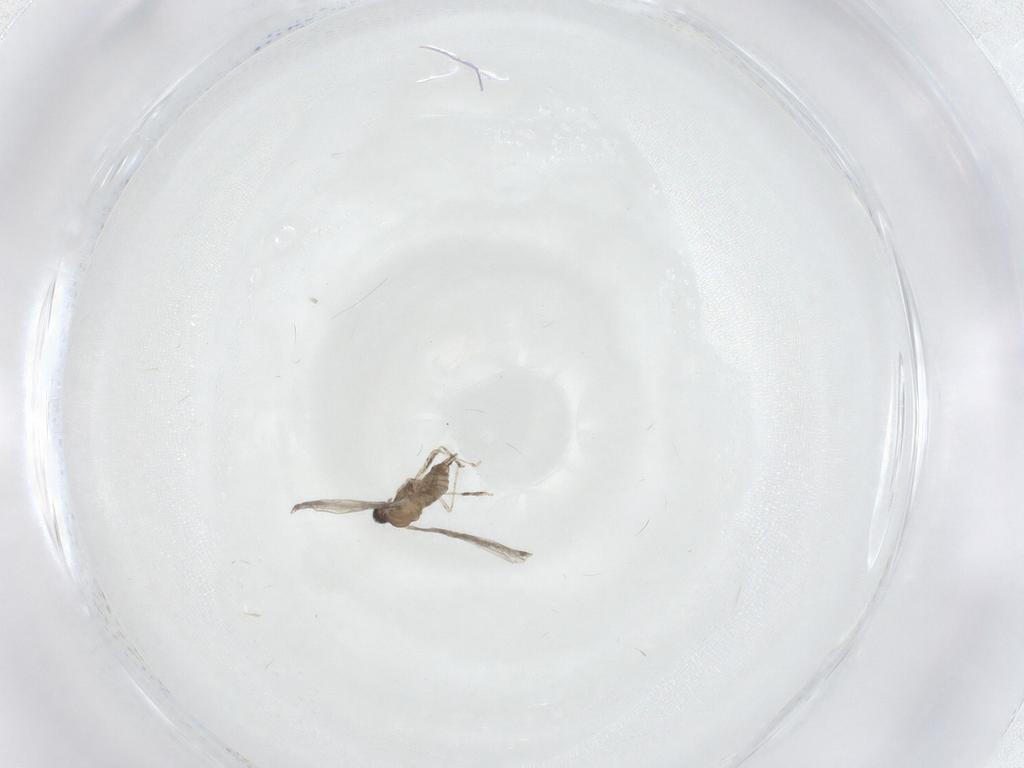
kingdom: Animalia
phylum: Arthropoda
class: Insecta
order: Diptera
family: Cecidomyiidae
